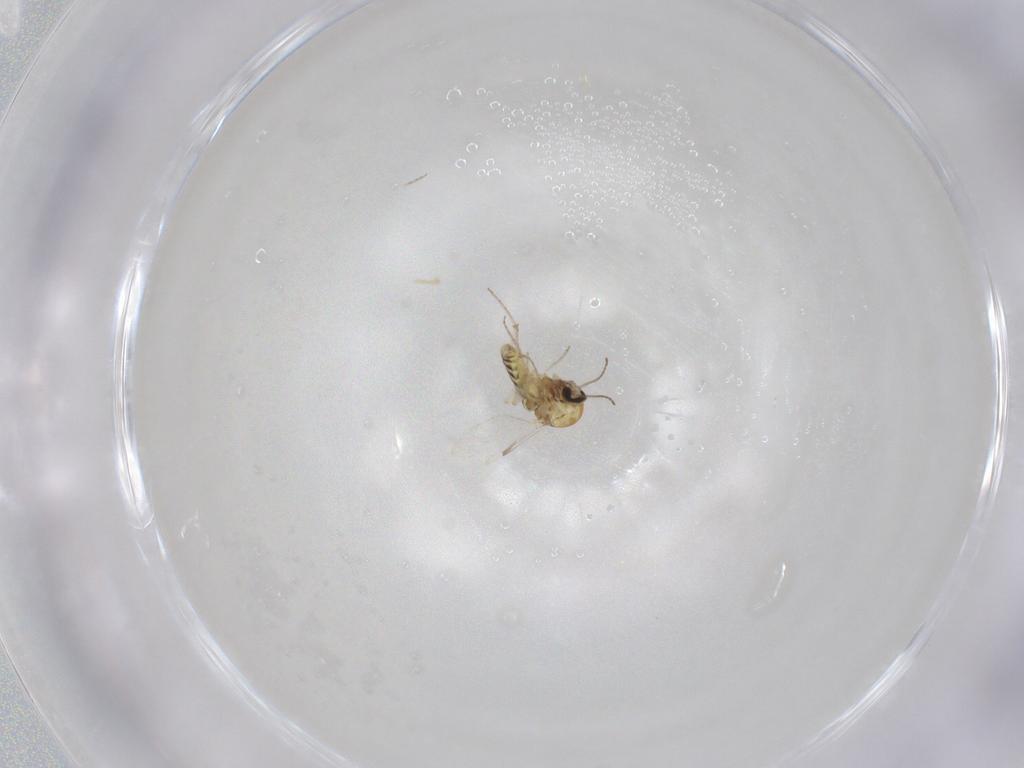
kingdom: Animalia
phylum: Arthropoda
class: Insecta
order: Diptera
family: Ceratopogonidae
